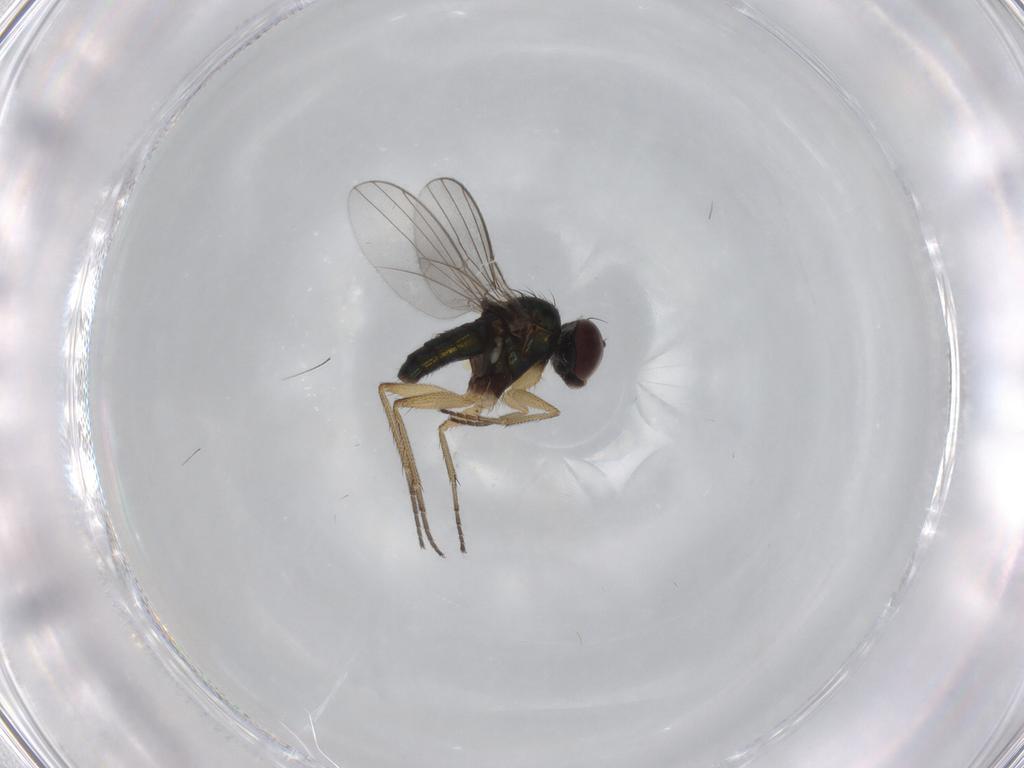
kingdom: Animalia
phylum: Arthropoda
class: Insecta
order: Diptera
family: Dolichopodidae
